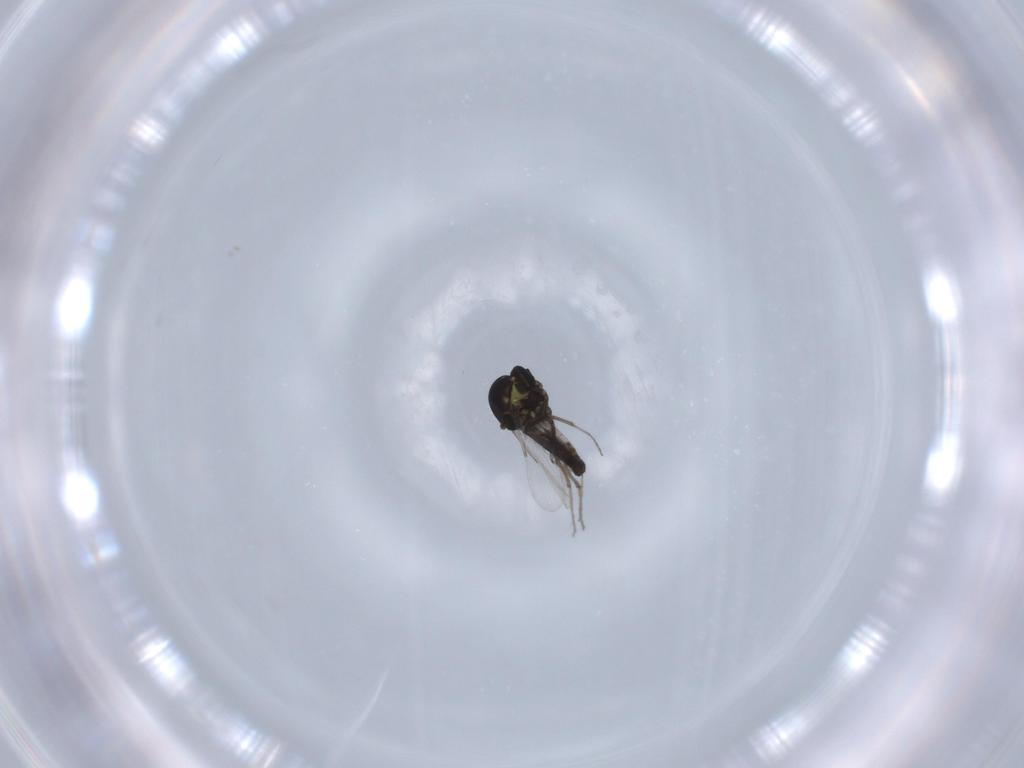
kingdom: Animalia
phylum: Arthropoda
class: Insecta
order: Diptera
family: Ceratopogonidae
